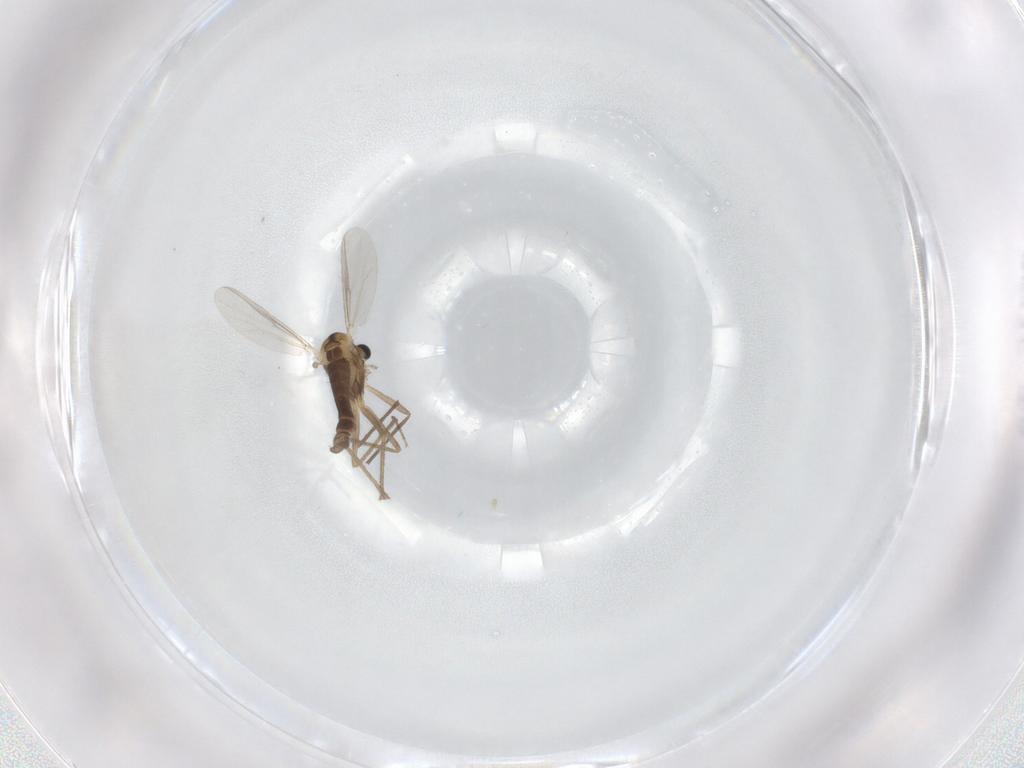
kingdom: Animalia
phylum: Arthropoda
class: Insecta
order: Diptera
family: Chironomidae
